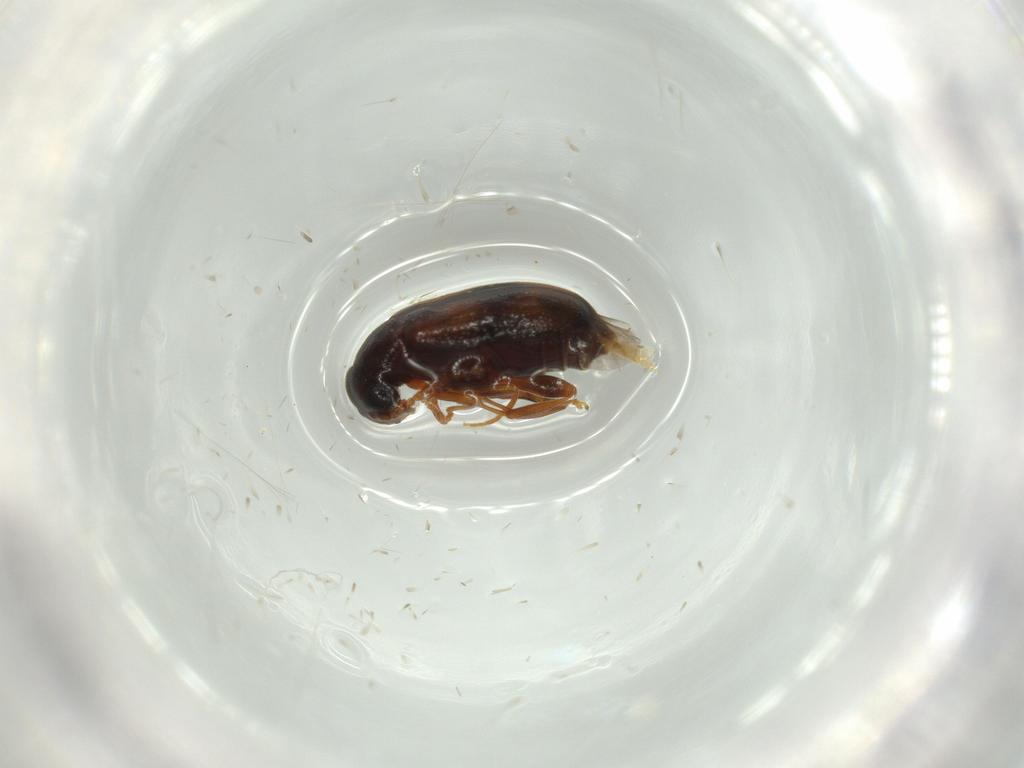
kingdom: Animalia
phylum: Arthropoda
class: Insecta
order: Coleoptera
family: Aderidae
